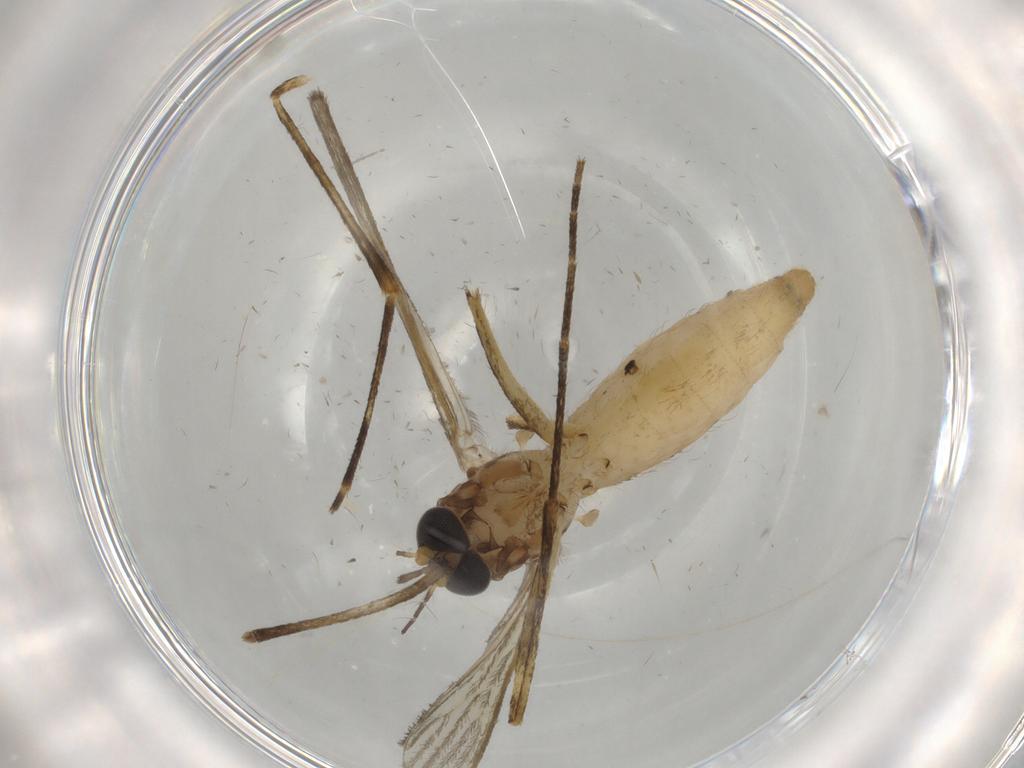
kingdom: Animalia
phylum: Arthropoda
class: Insecta
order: Diptera
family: Culicidae
